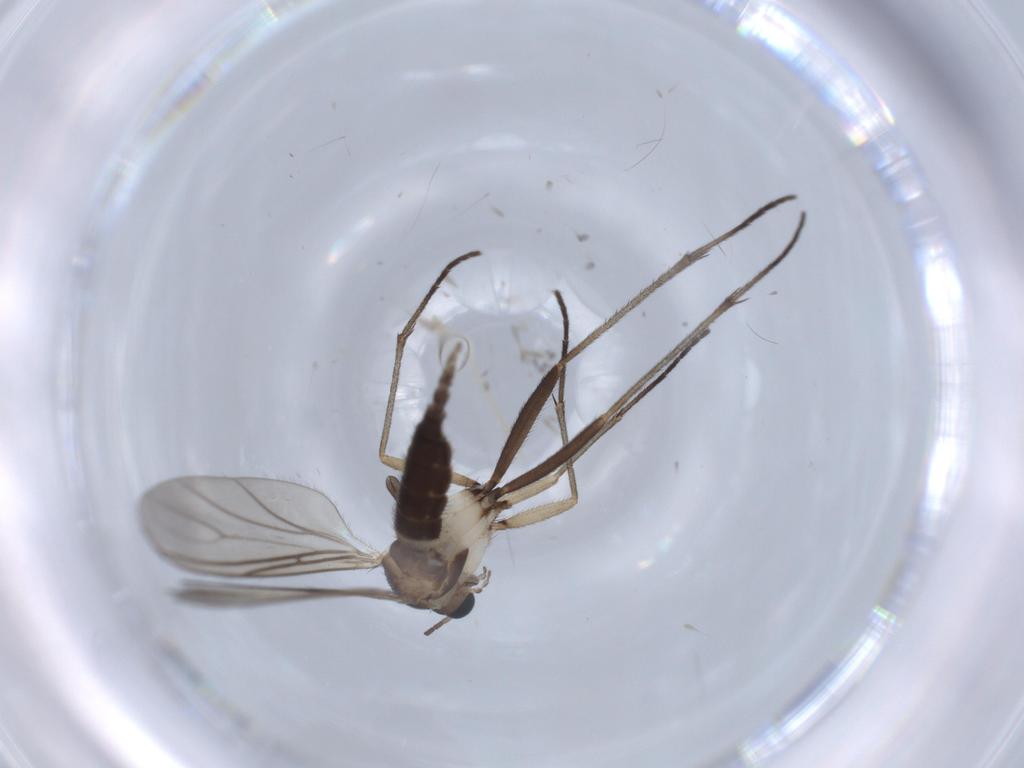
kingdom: Animalia
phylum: Arthropoda
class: Insecta
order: Diptera
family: Sciaridae
